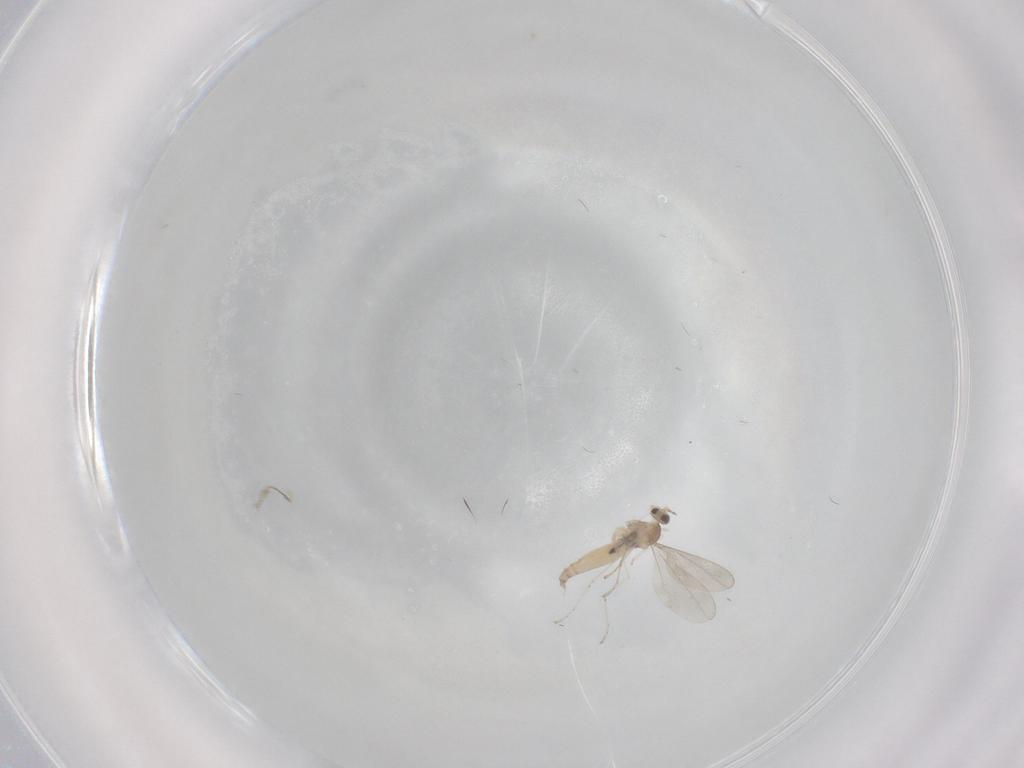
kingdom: Animalia
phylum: Arthropoda
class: Insecta
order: Diptera
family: Cecidomyiidae
